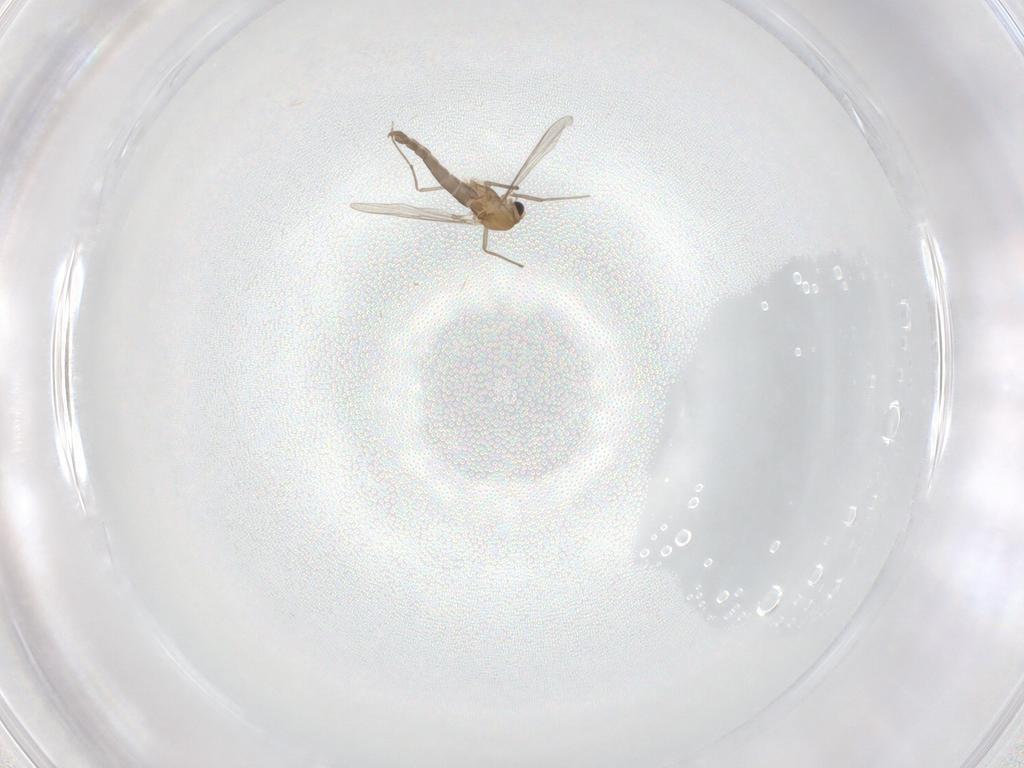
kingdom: Animalia
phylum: Arthropoda
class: Insecta
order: Diptera
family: Chironomidae
